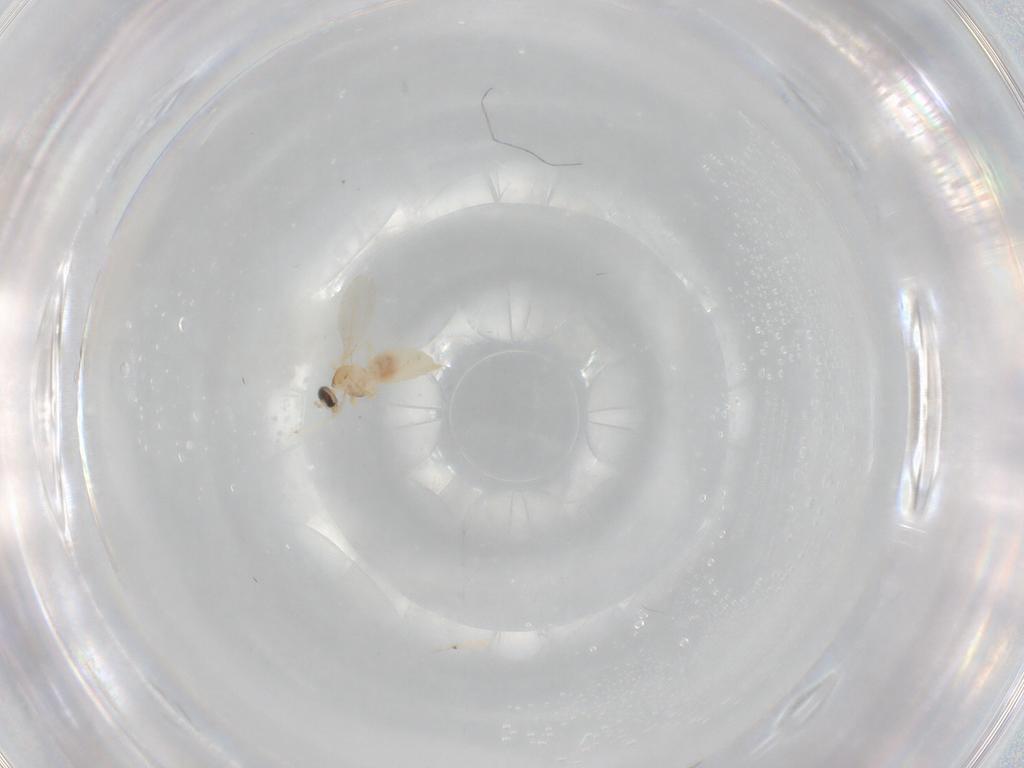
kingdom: Animalia
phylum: Arthropoda
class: Insecta
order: Diptera
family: Cecidomyiidae
